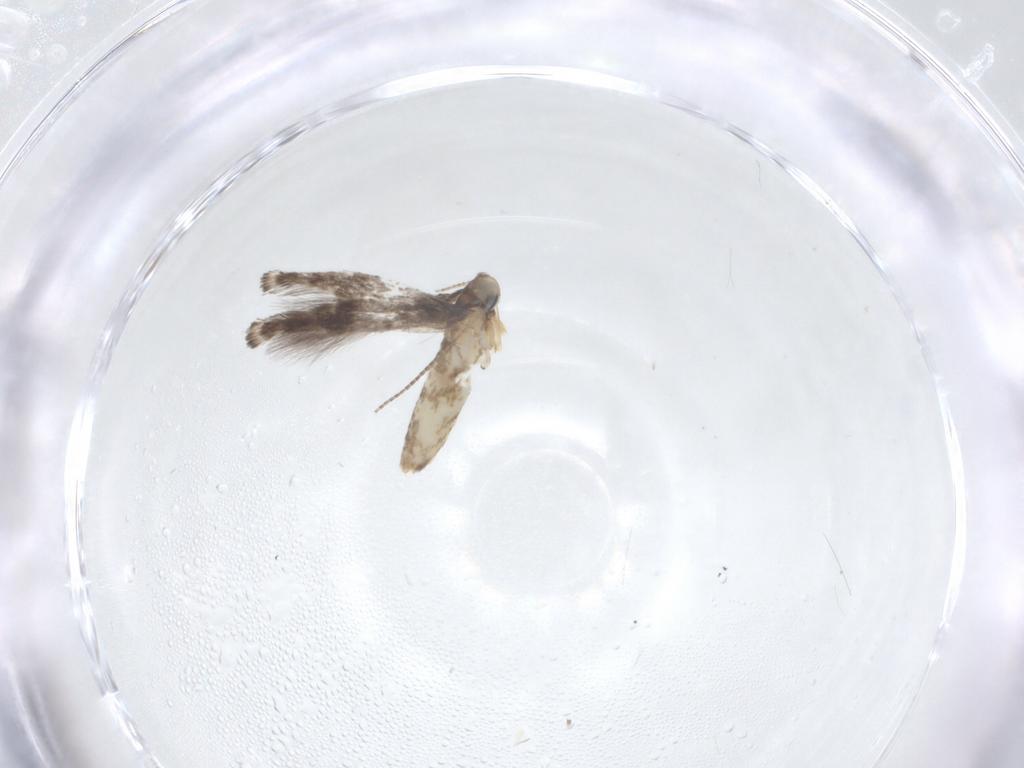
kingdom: Animalia
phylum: Arthropoda
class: Insecta
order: Lepidoptera
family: Gracillariidae
